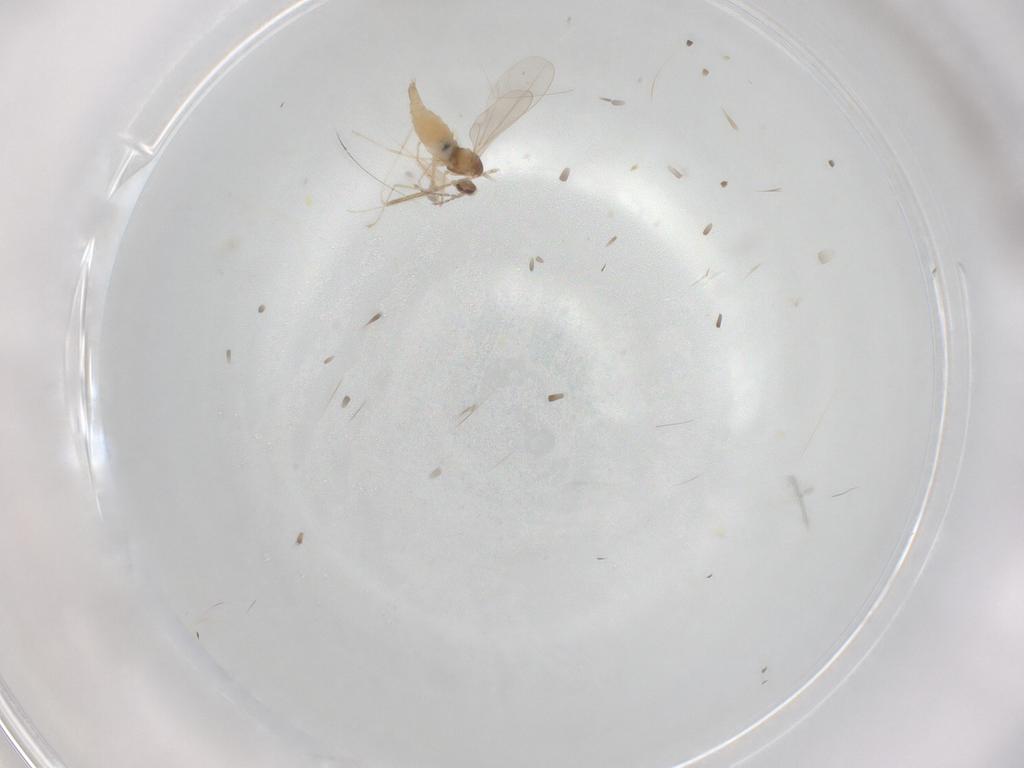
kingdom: Animalia
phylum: Arthropoda
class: Insecta
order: Diptera
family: Cecidomyiidae
